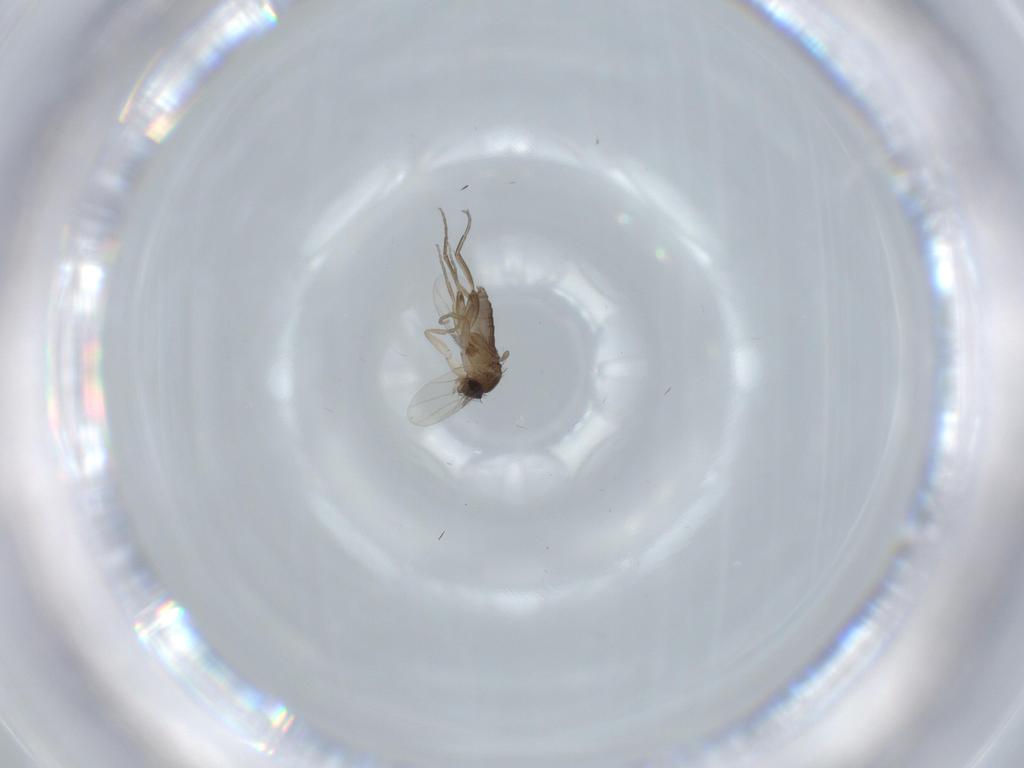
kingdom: Animalia
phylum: Arthropoda
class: Insecta
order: Diptera
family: Phoridae
